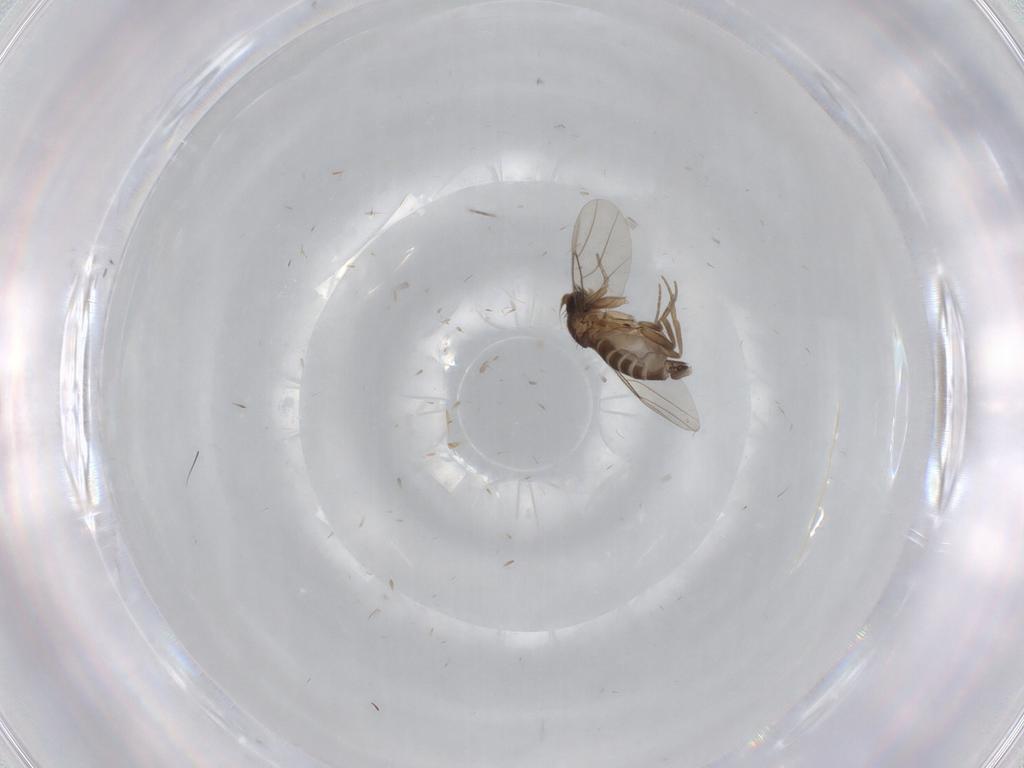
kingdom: Animalia
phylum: Arthropoda
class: Insecta
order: Diptera
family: Phoridae
